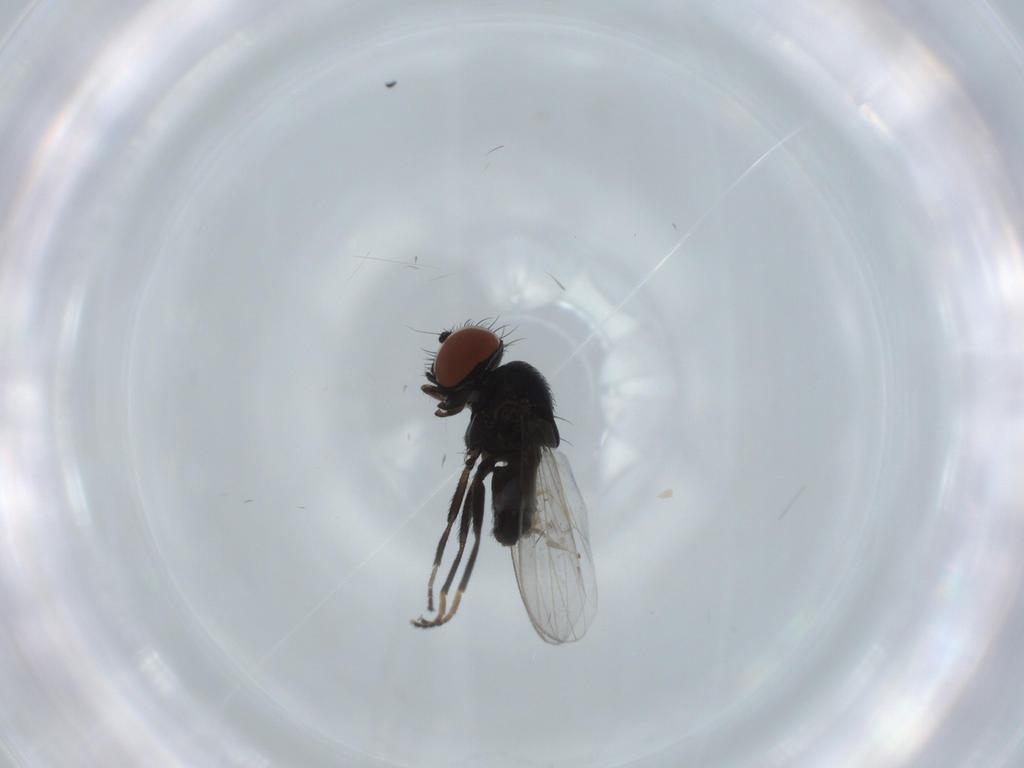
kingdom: Animalia
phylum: Arthropoda
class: Insecta
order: Diptera
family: Milichiidae
